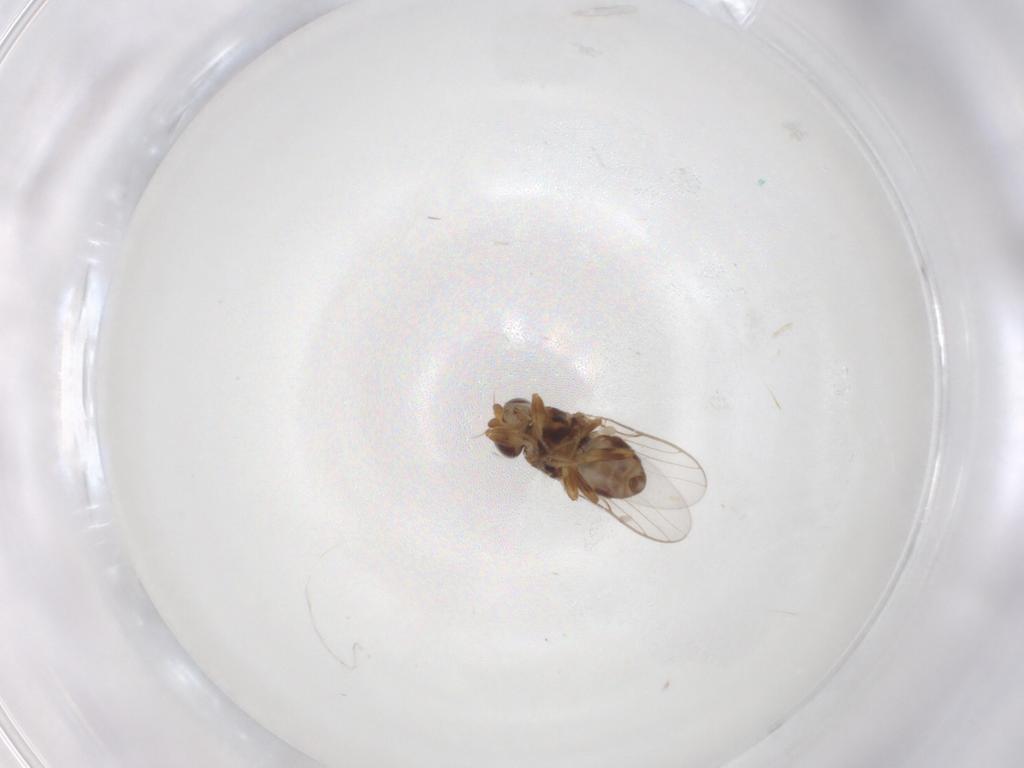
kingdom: Animalia
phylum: Arthropoda
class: Insecta
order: Diptera
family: Chloropidae
